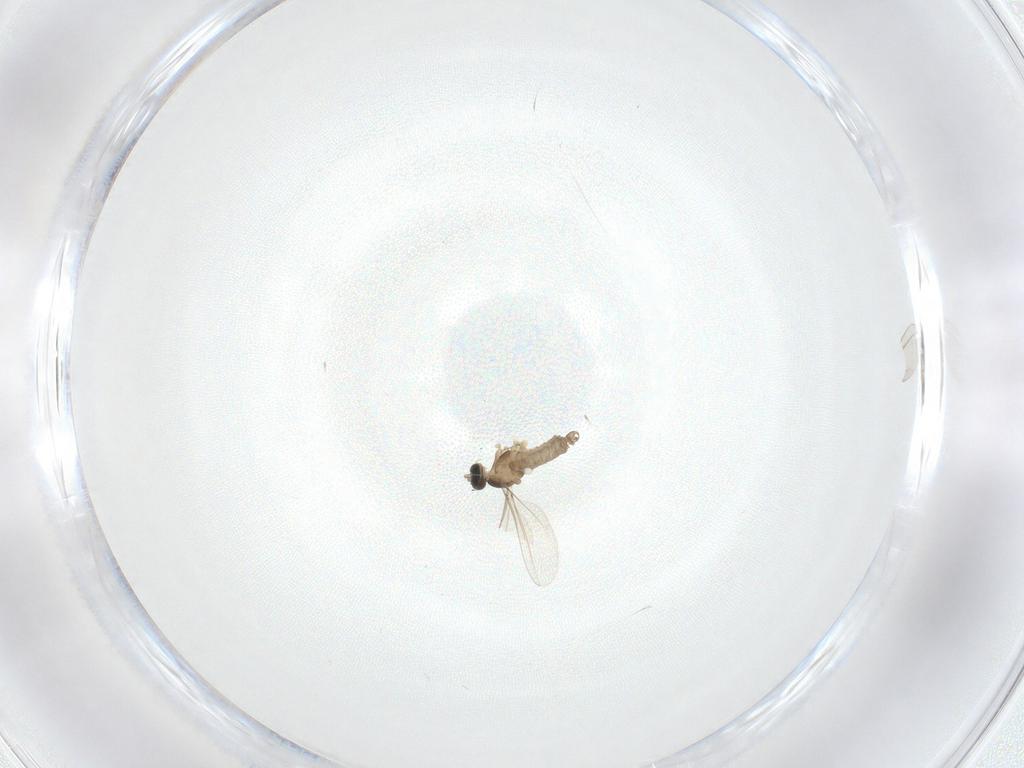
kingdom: Animalia
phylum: Arthropoda
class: Insecta
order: Diptera
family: Cecidomyiidae
